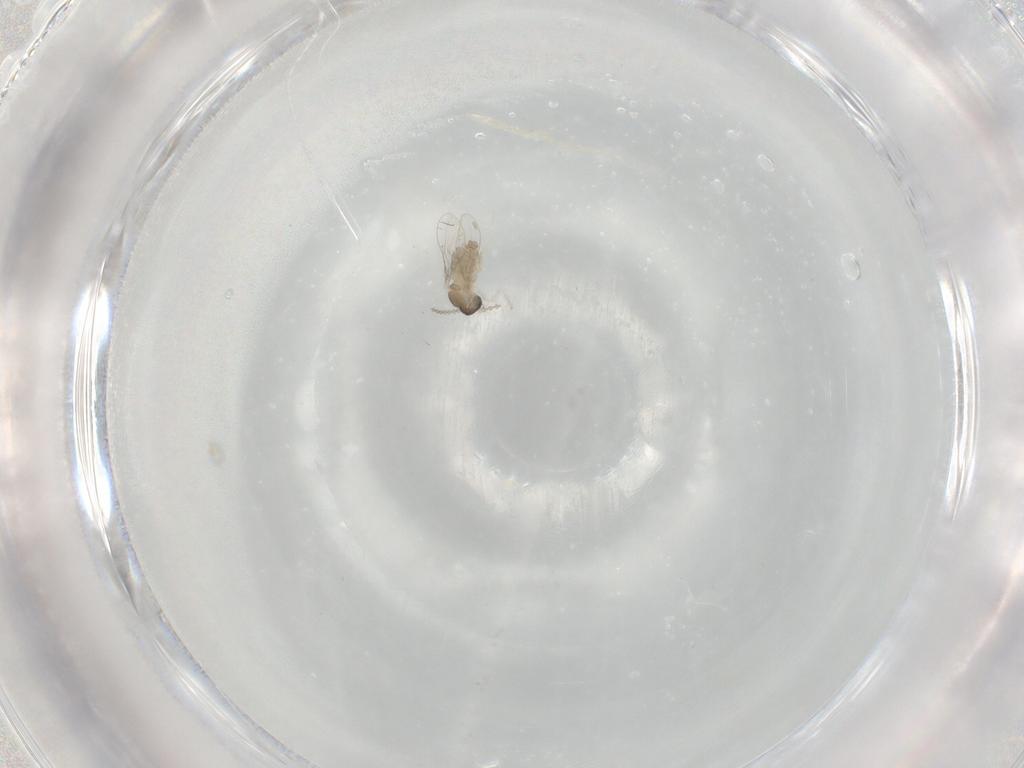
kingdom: Animalia
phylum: Arthropoda
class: Insecta
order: Diptera
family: Cecidomyiidae
